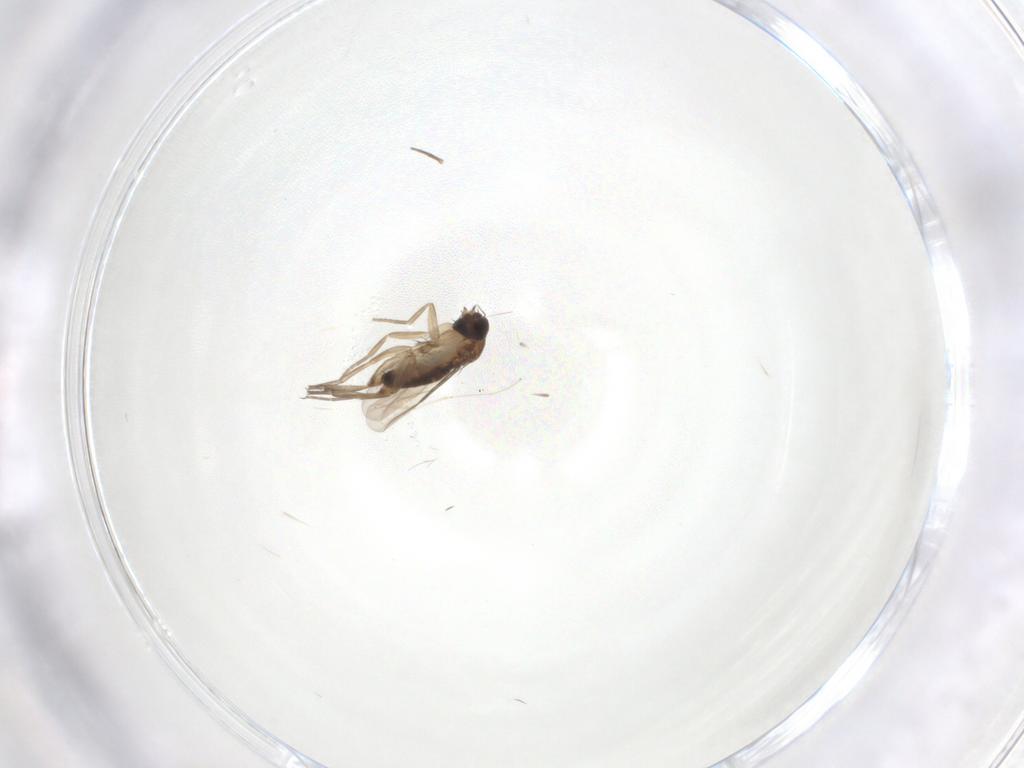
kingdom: Animalia
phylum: Arthropoda
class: Insecta
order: Diptera
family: Phoridae
